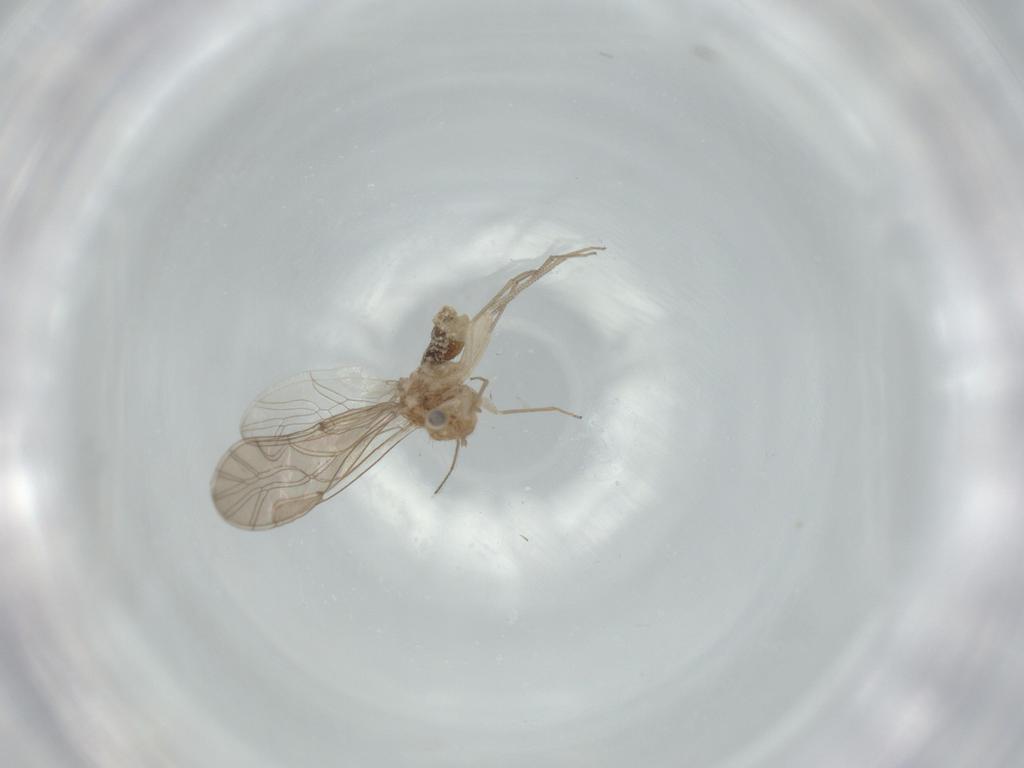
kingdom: Animalia
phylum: Arthropoda
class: Insecta
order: Psocodea
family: Lachesillidae
